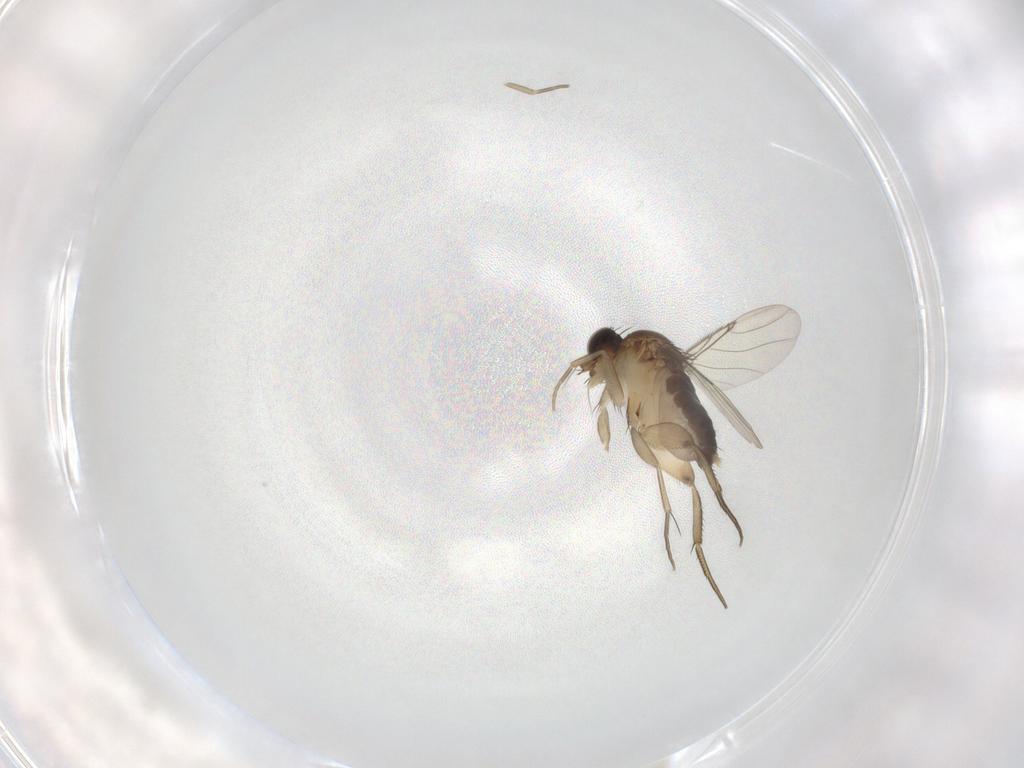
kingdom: Animalia
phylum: Arthropoda
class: Insecta
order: Diptera
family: Phoridae
